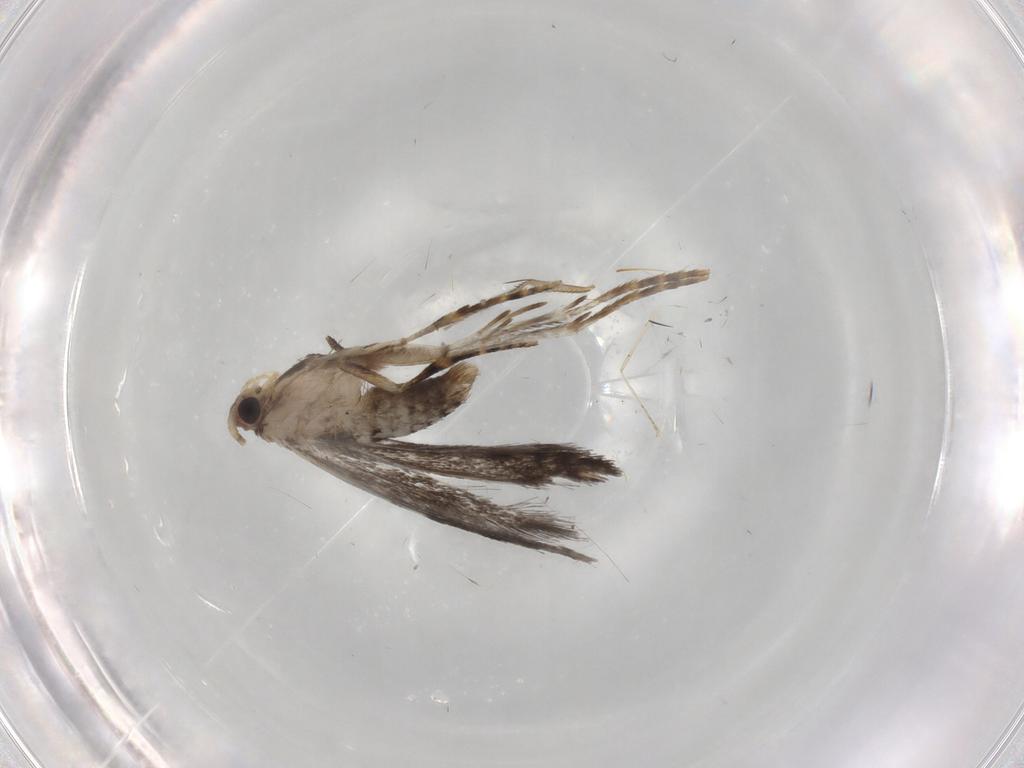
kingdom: Animalia
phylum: Arthropoda
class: Insecta
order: Lepidoptera
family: Tineidae
